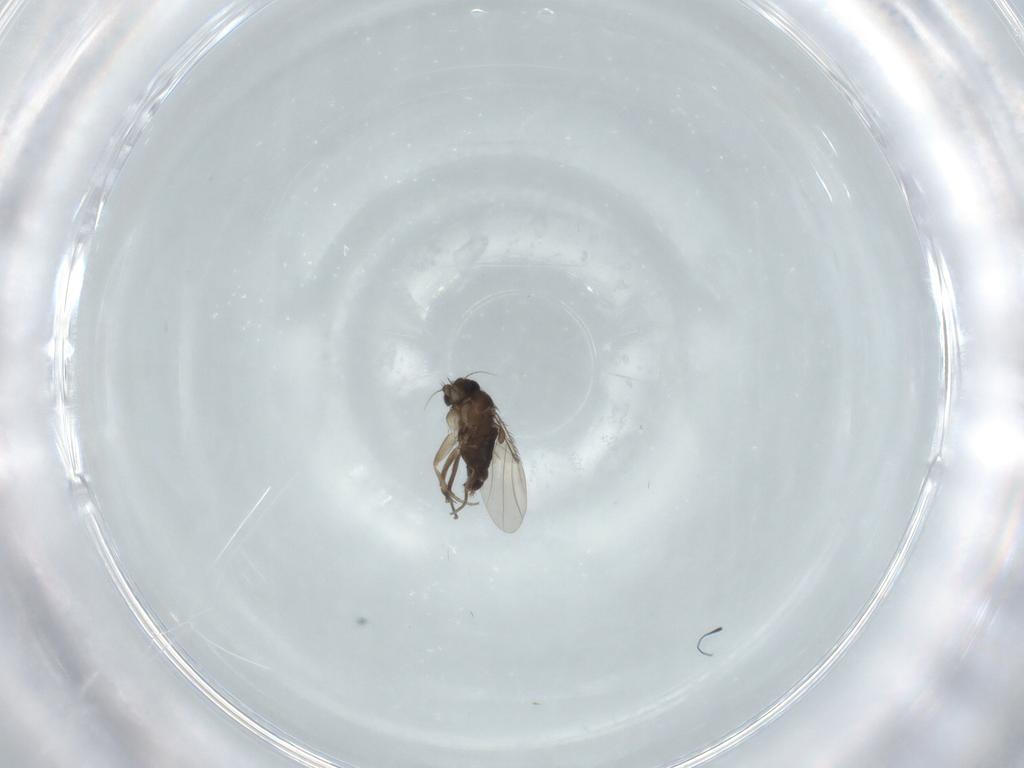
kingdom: Animalia
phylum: Arthropoda
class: Insecta
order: Diptera
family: Phoridae
